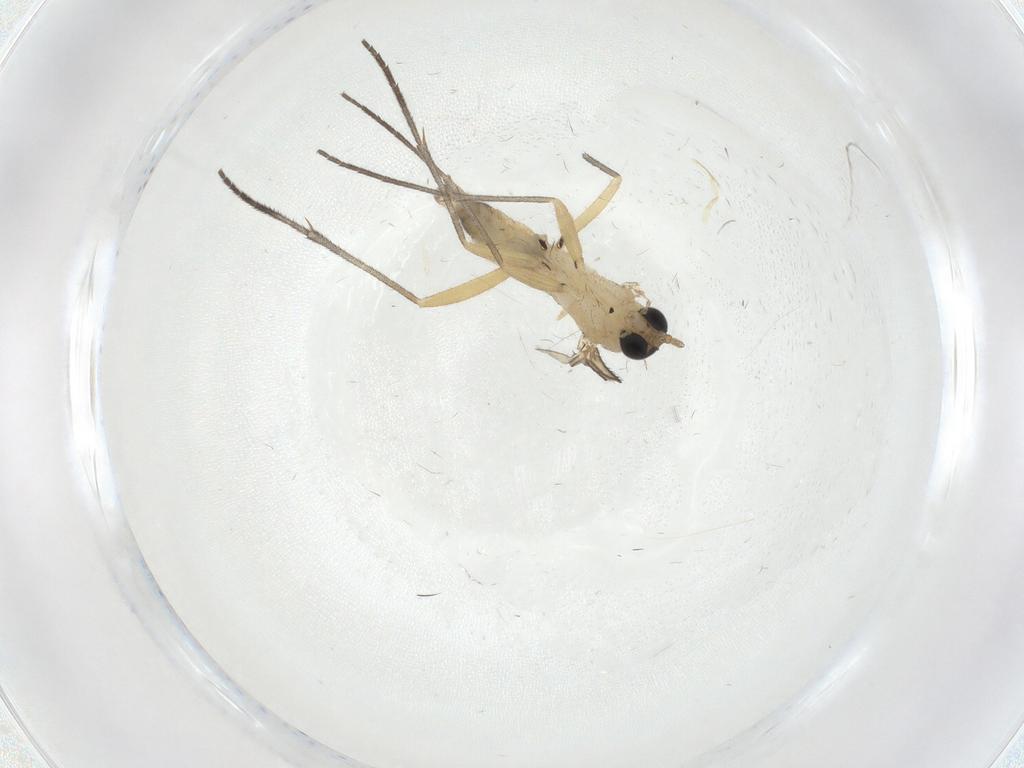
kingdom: Animalia
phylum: Arthropoda
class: Insecta
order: Diptera
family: Sciaridae
